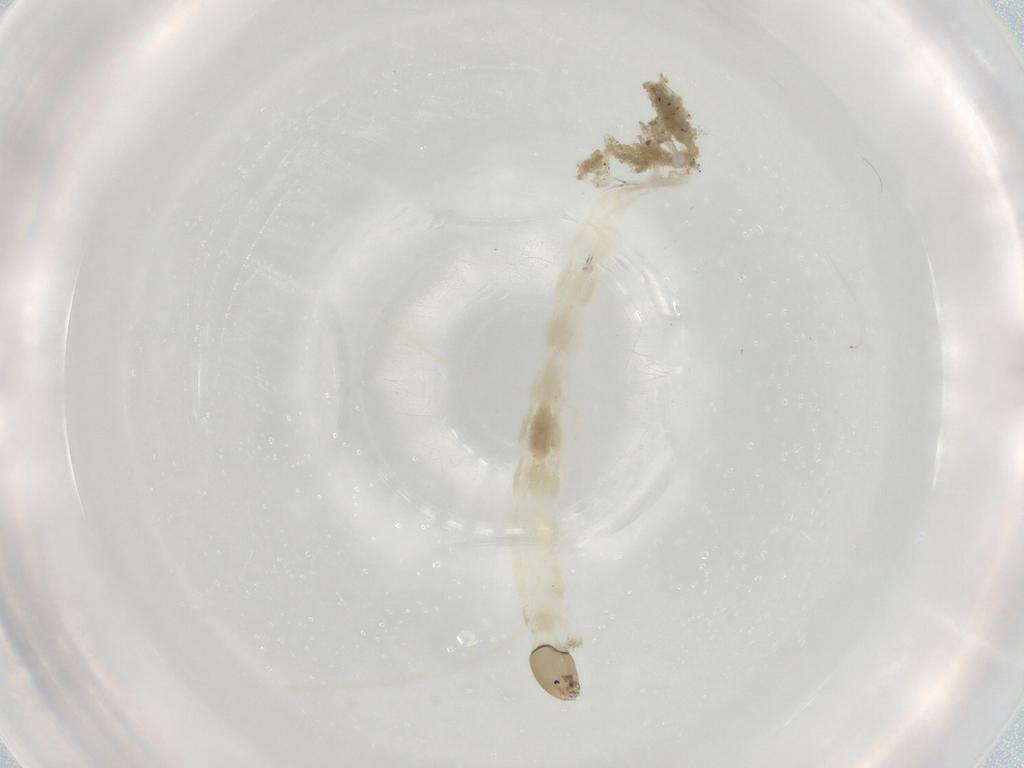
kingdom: Animalia
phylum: Arthropoda
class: Insecta
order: Diptera
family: Chironomidae
